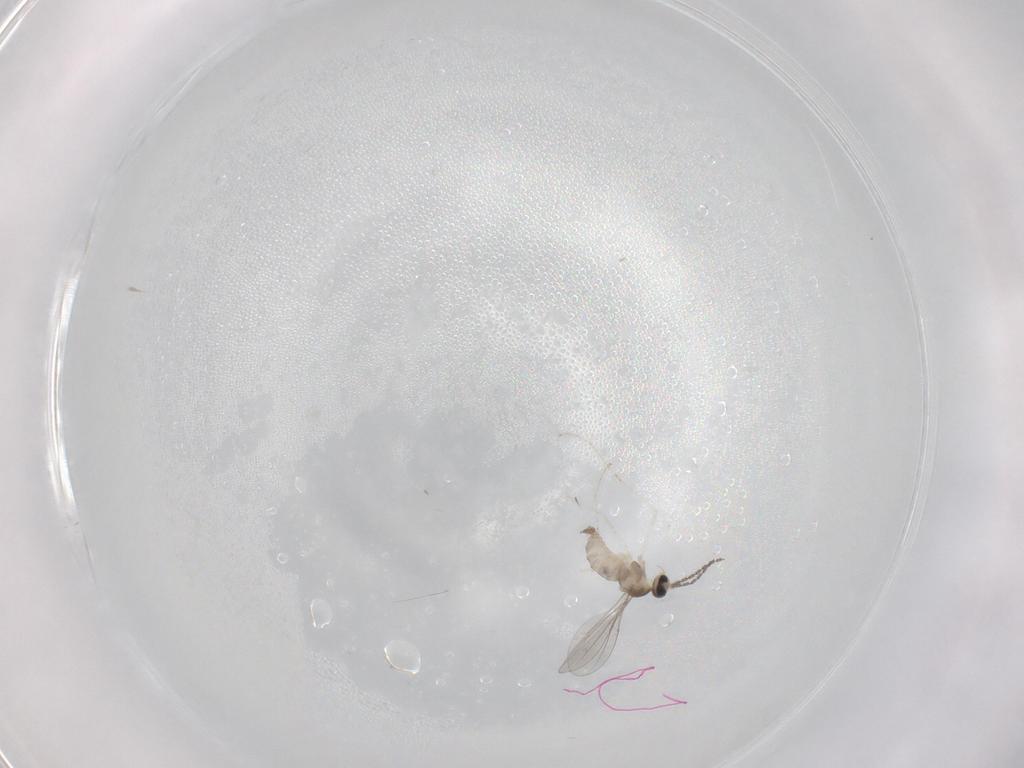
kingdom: Animalia
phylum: Arthropoda
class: Insecta
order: Diptera
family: Cecidomyiidae
